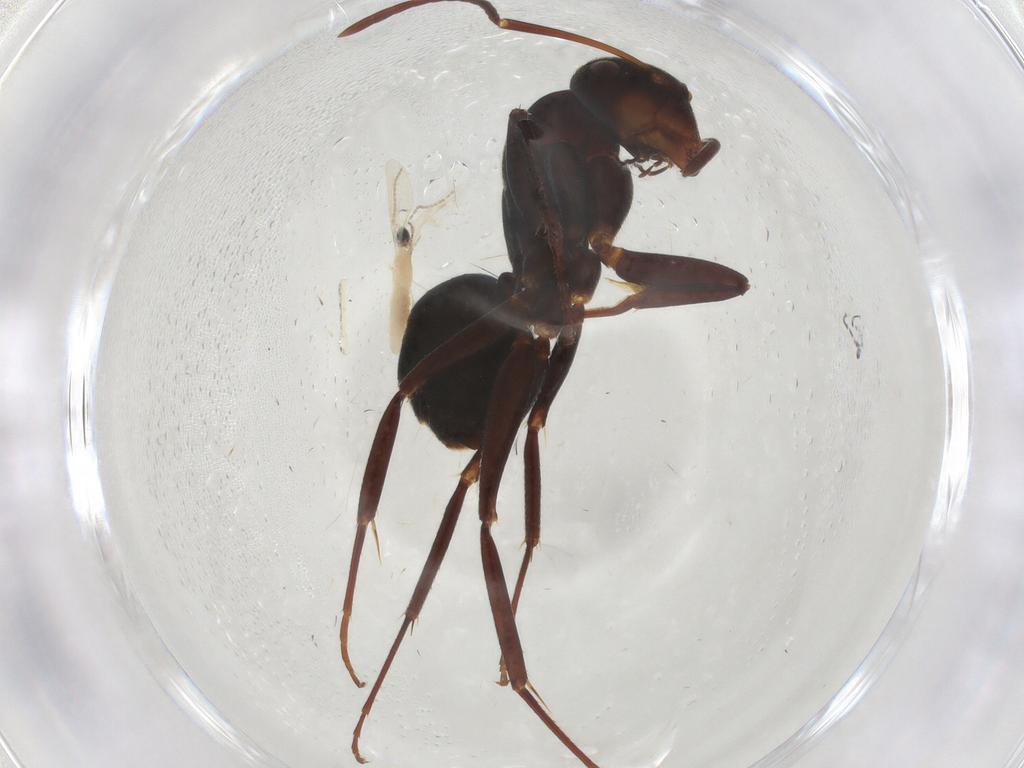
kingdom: Animalia
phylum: Arthropoda
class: Insecta
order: Diptera
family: Cecidomyiidae
